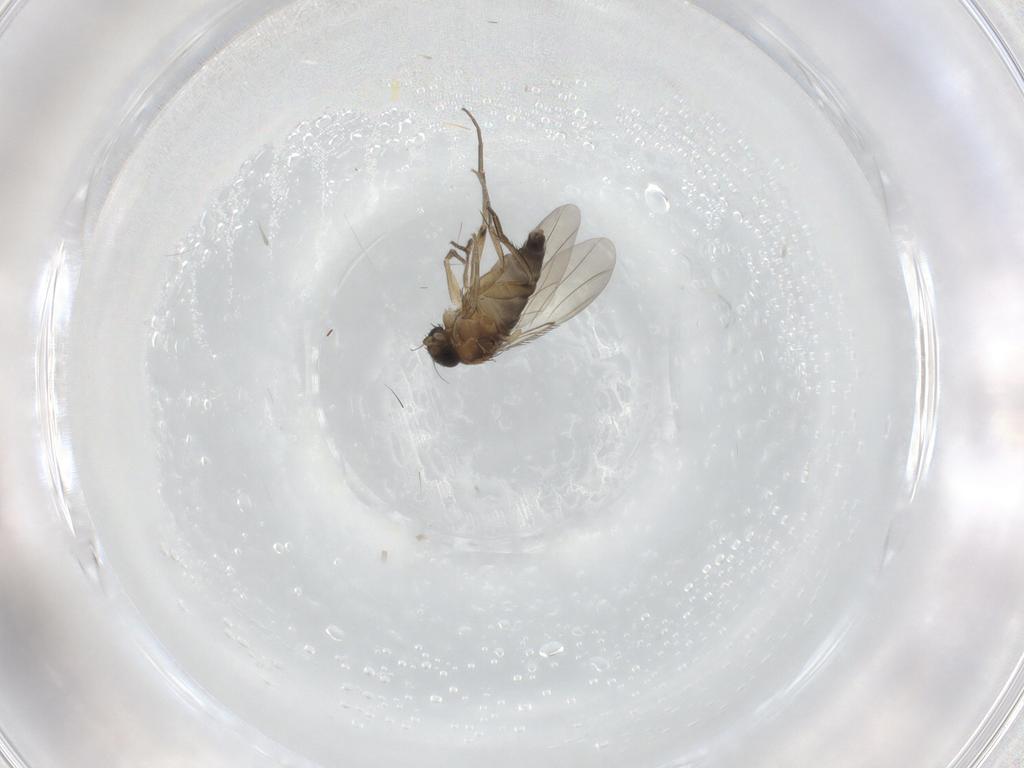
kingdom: Animalia
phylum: Arthropoda
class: Insecta
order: Diptera
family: Phoridae
